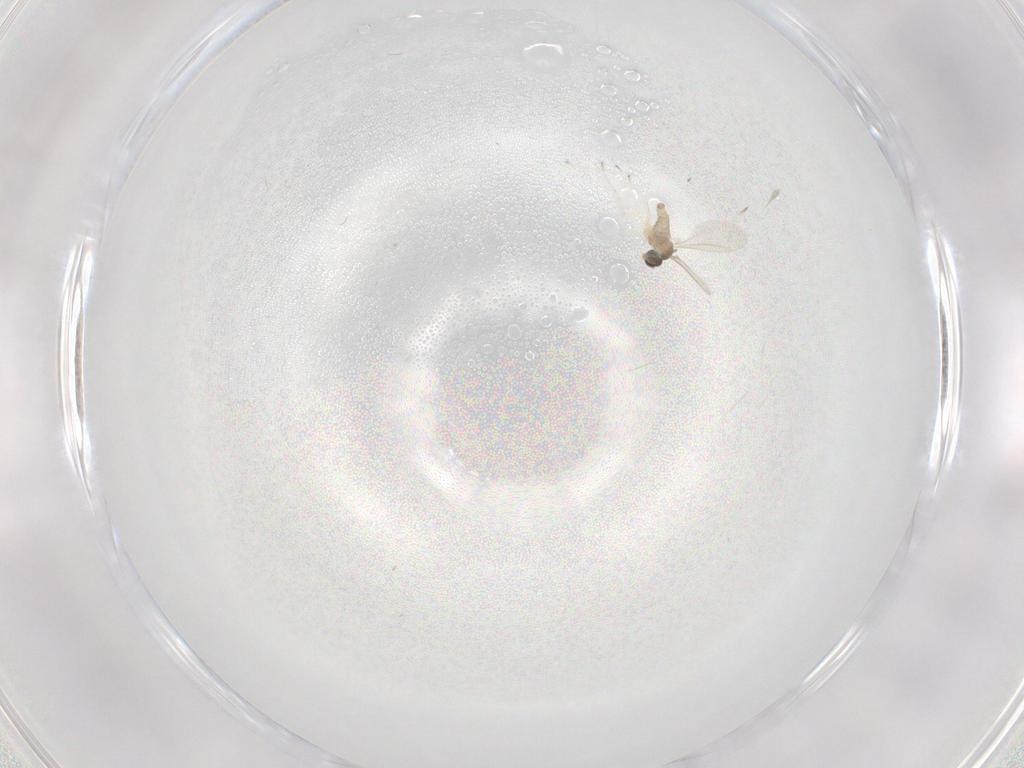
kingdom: Animalia
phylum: Arthropoda
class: Insecta
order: Diptera
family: Cecidomyiidae
